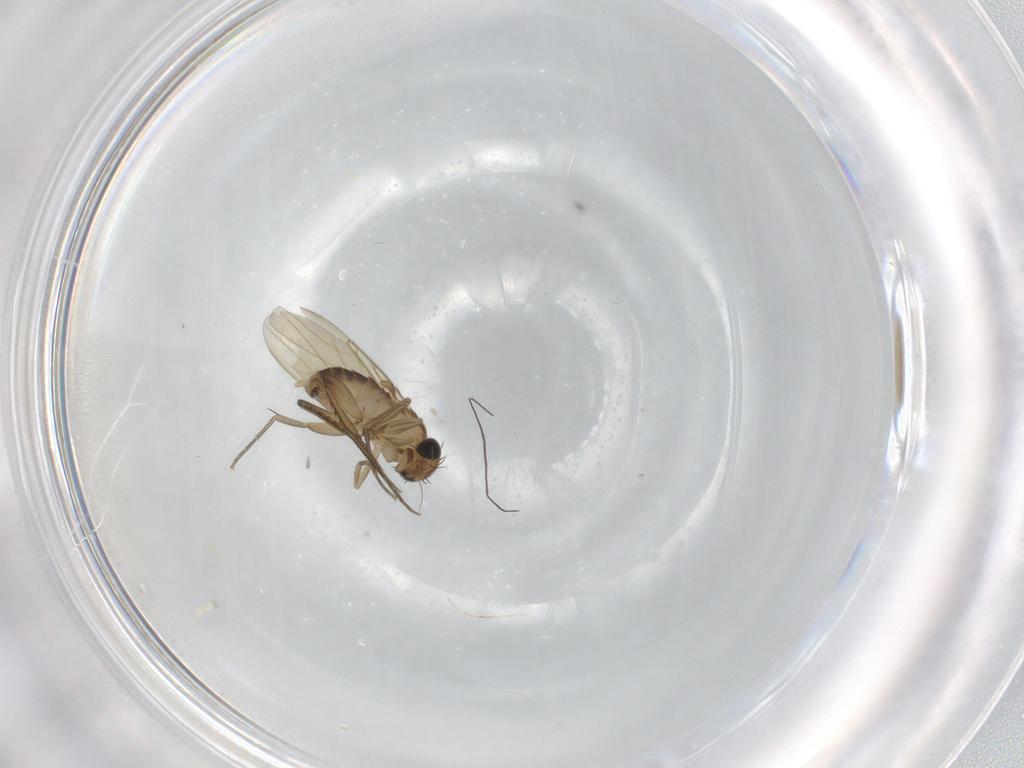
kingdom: Animalia
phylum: Arthropoda
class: Insecta
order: Diptera
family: Phoridae
